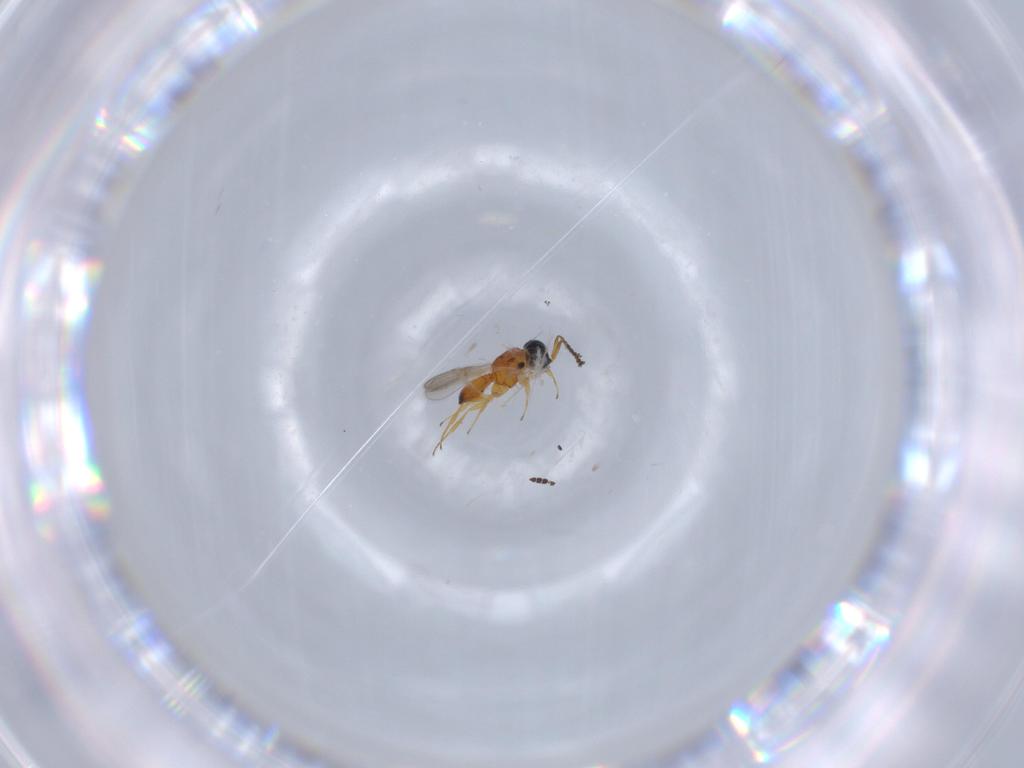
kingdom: Animalia
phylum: Arthropoda
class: Insecta
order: Hymenoptera
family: Scelionidae
